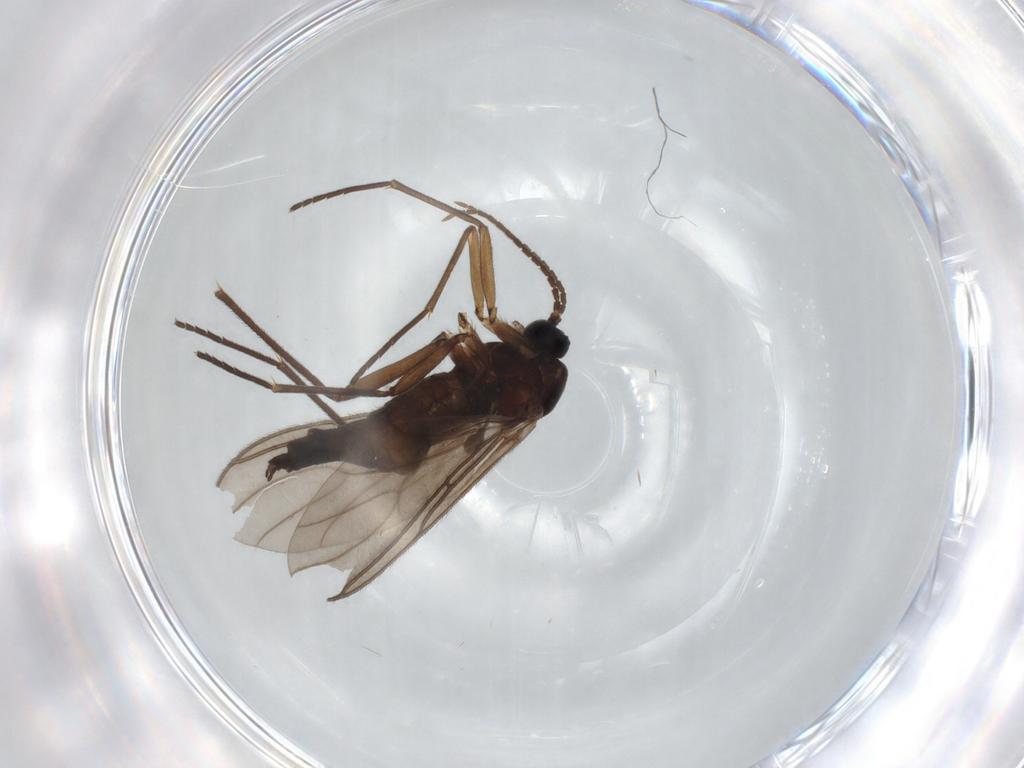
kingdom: Animalia
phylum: Arthropoda
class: Insecta
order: Diptera
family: Sciaridae
